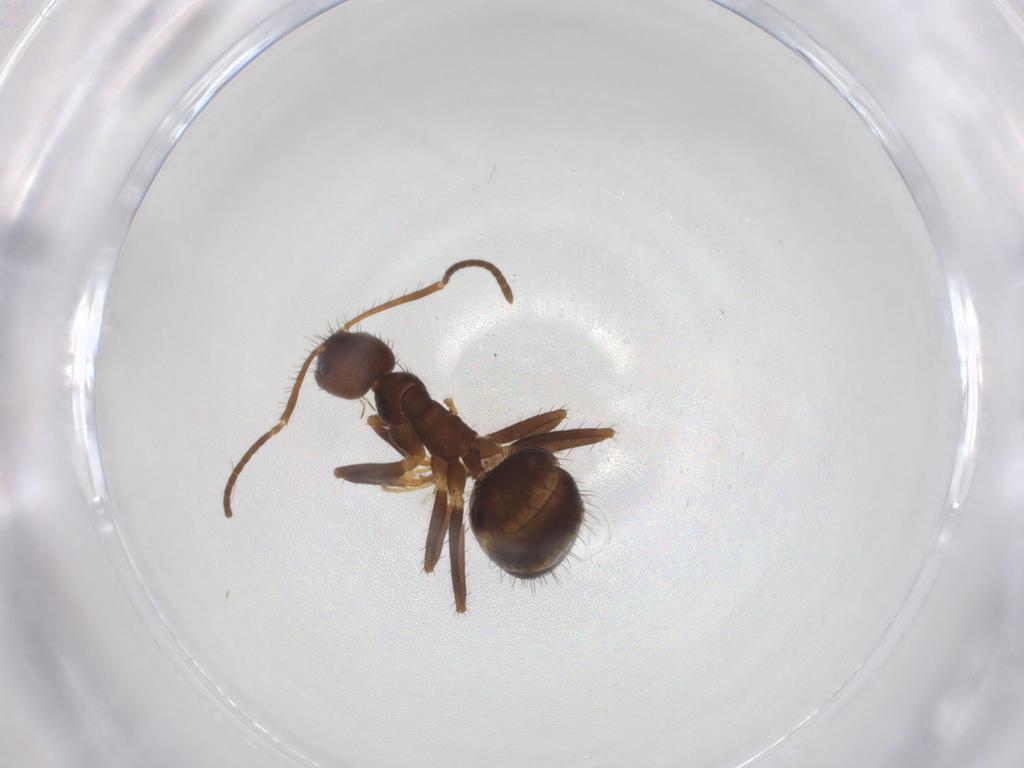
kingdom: Animalia
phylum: Arthropoda
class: Insecta
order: Hymenoptera
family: Formicidae
